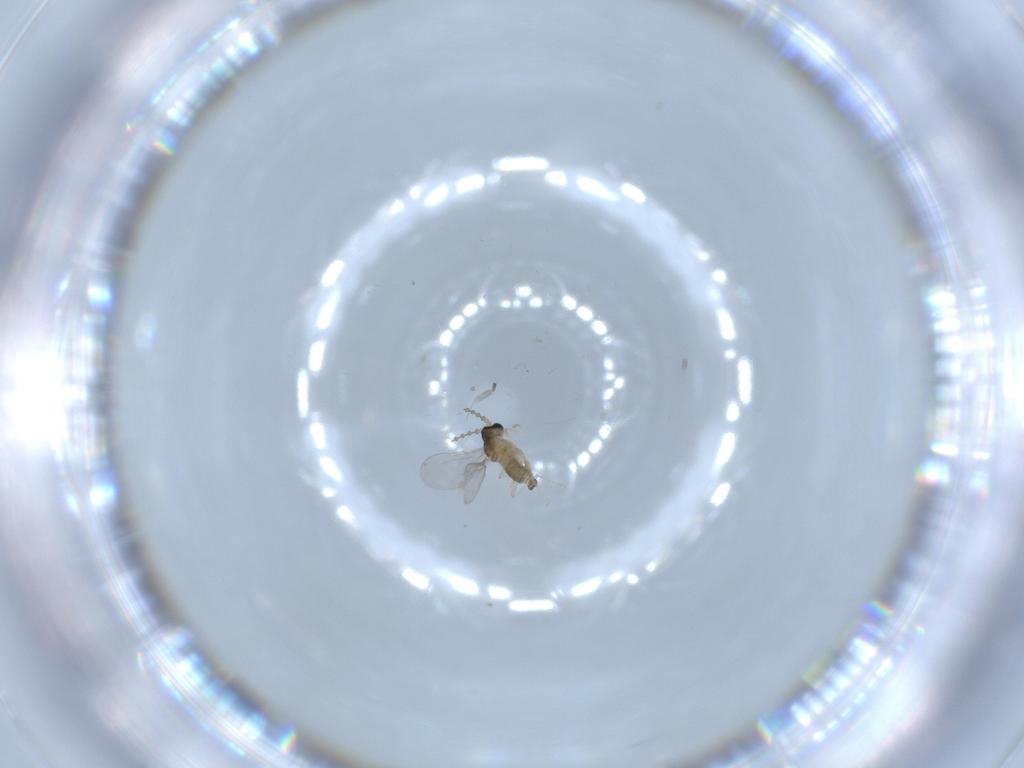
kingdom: Animalia
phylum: Arthropoda
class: Insecta
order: Diptera
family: Cecidomyiidae
